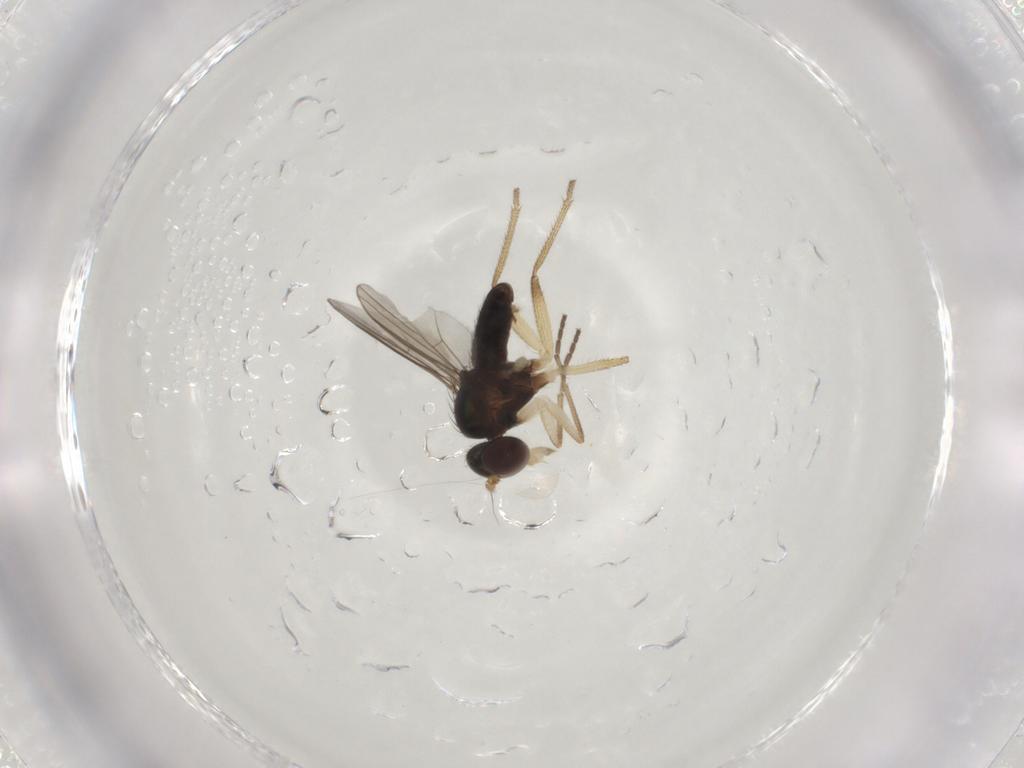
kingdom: Animalia
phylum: Arthropoda
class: Insecta
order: Diptera
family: Dolichopodidae
